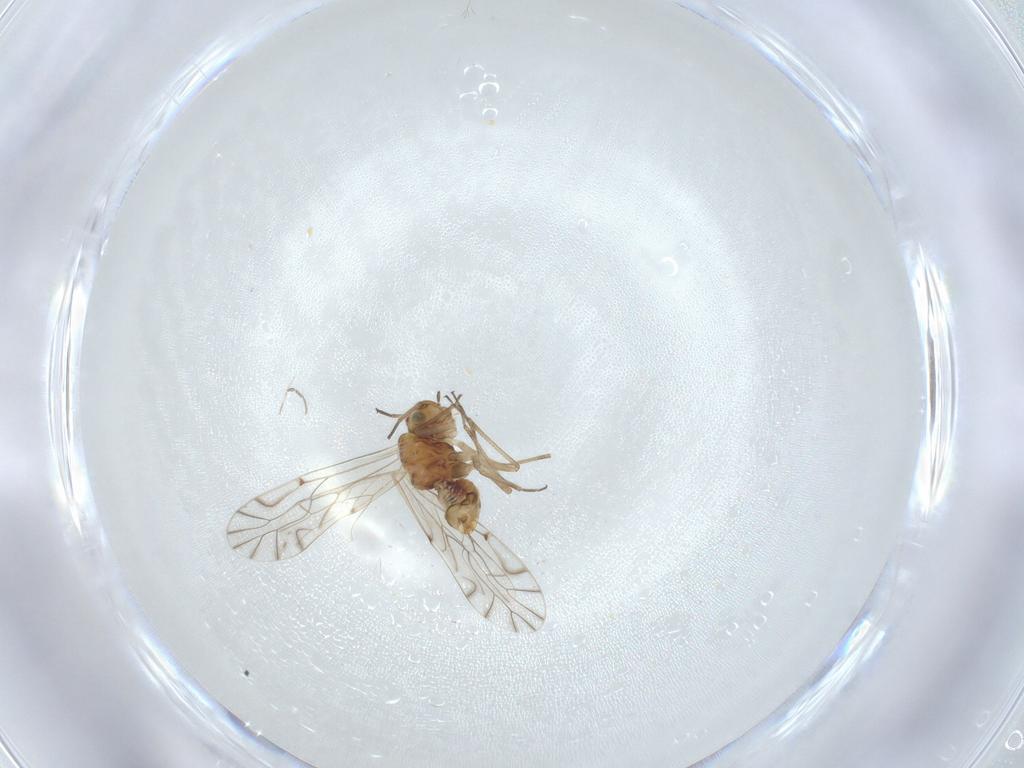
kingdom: Animalia
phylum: Arthropoda
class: Insecta
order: Psocodea
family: Lachesillidae
